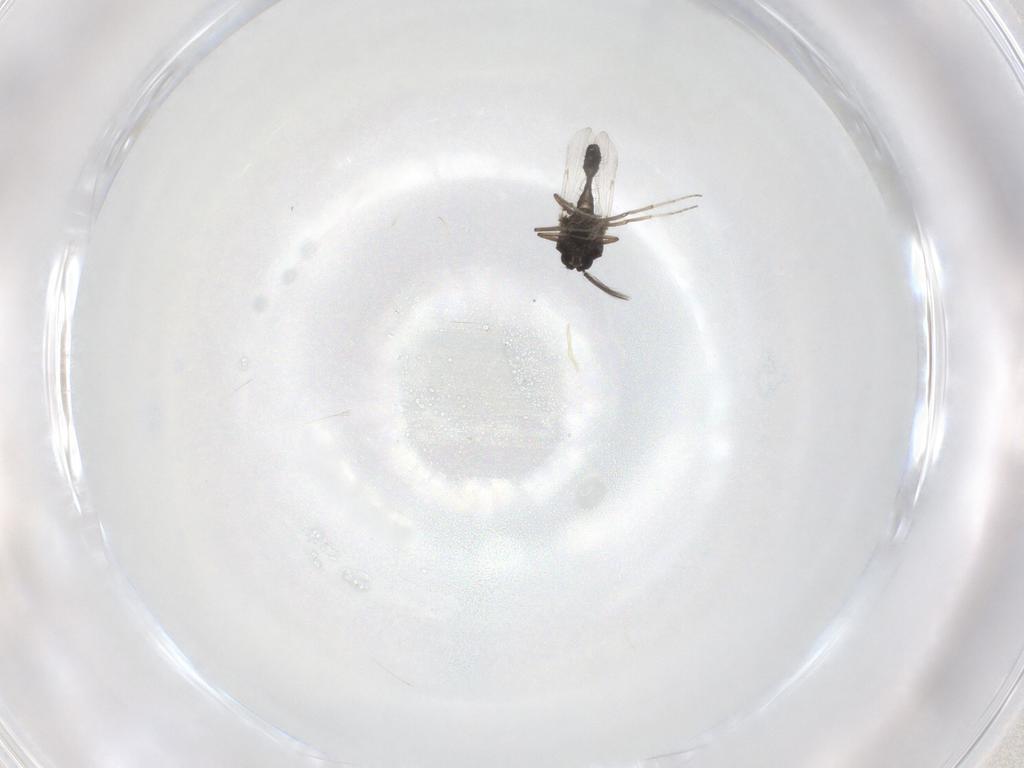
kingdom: Animalia
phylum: Arthropoda
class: Insecta
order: Diptera
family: Ceratopogonidae
